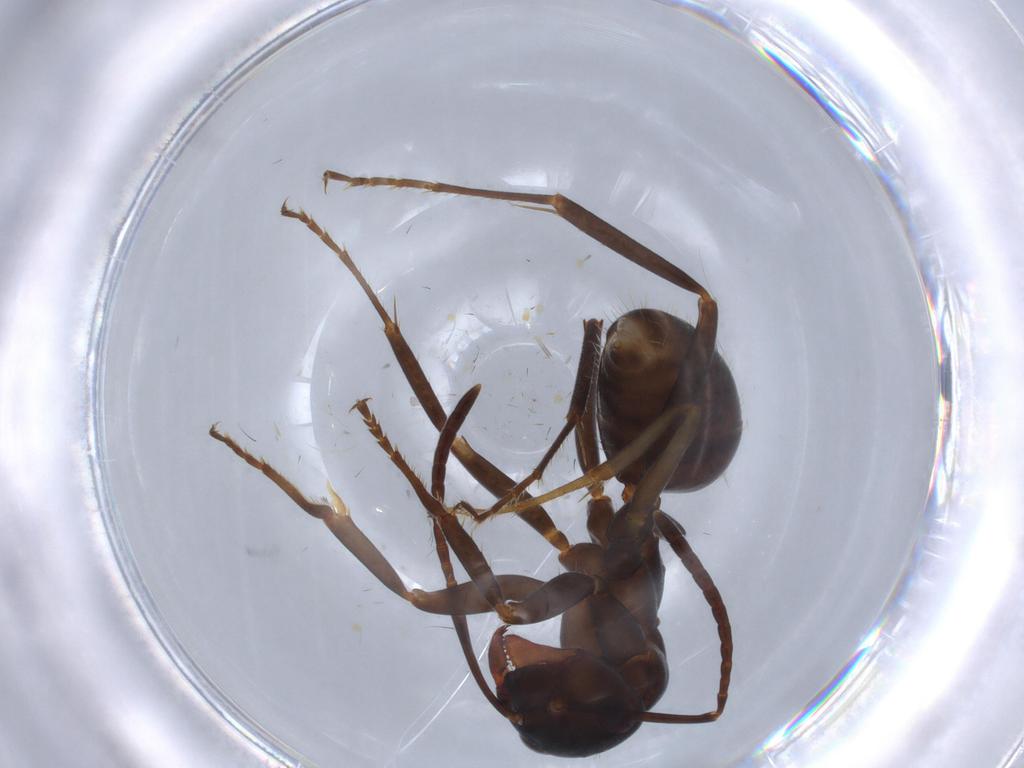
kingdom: Animalia
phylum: Arthropoda
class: Insecta
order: Hymenoptera
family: Formicidae
